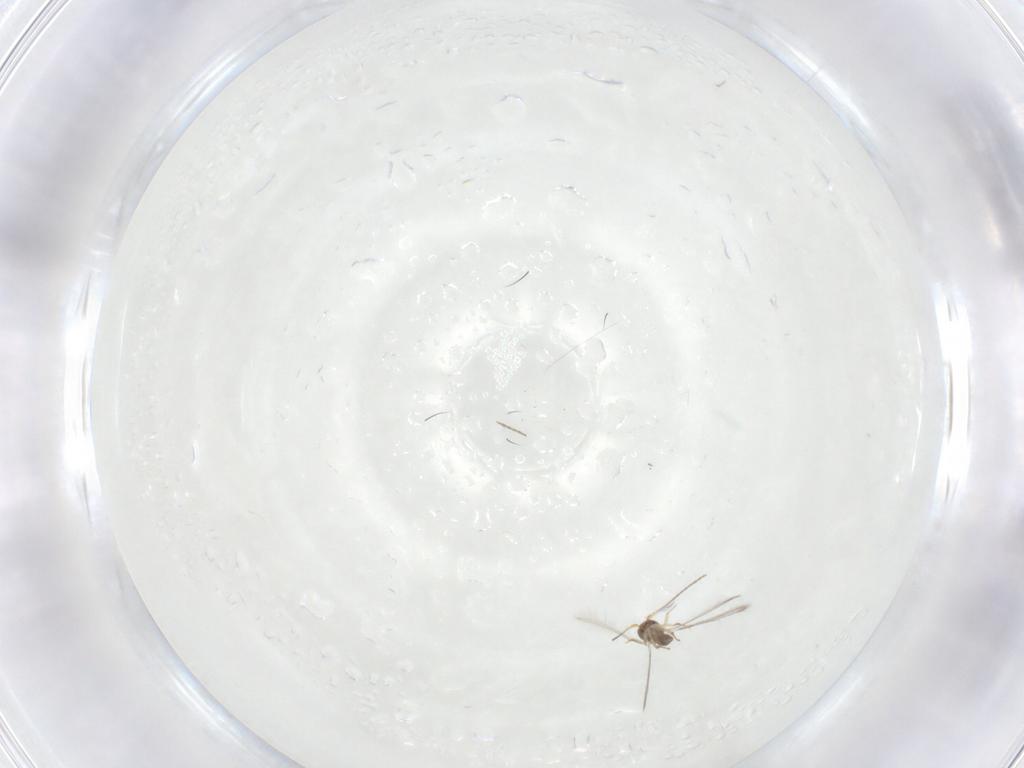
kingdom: Animalia
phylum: Arthropoda
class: Insecta
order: Hymenoptera
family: Mymaridae
